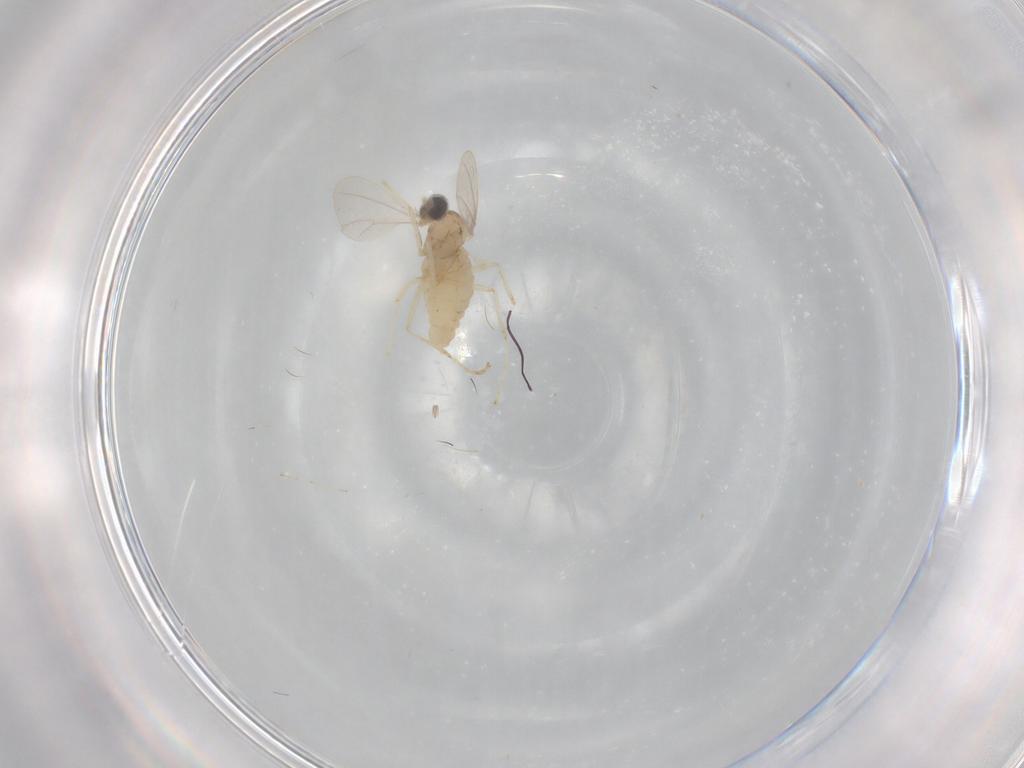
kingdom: Animalia
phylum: Arthropoda
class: Insecta
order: Diptera
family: Cecidomyiidae
